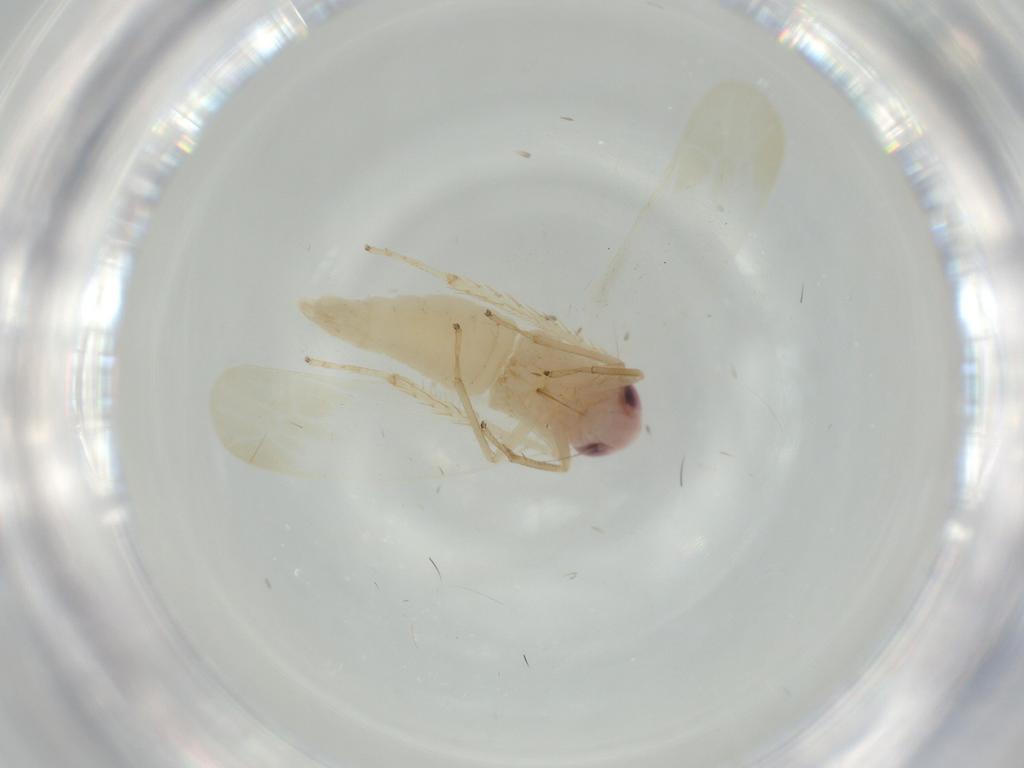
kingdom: Animalia
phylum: Arthropoda
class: Insecta
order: Hemiptera
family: Cicadellidae
